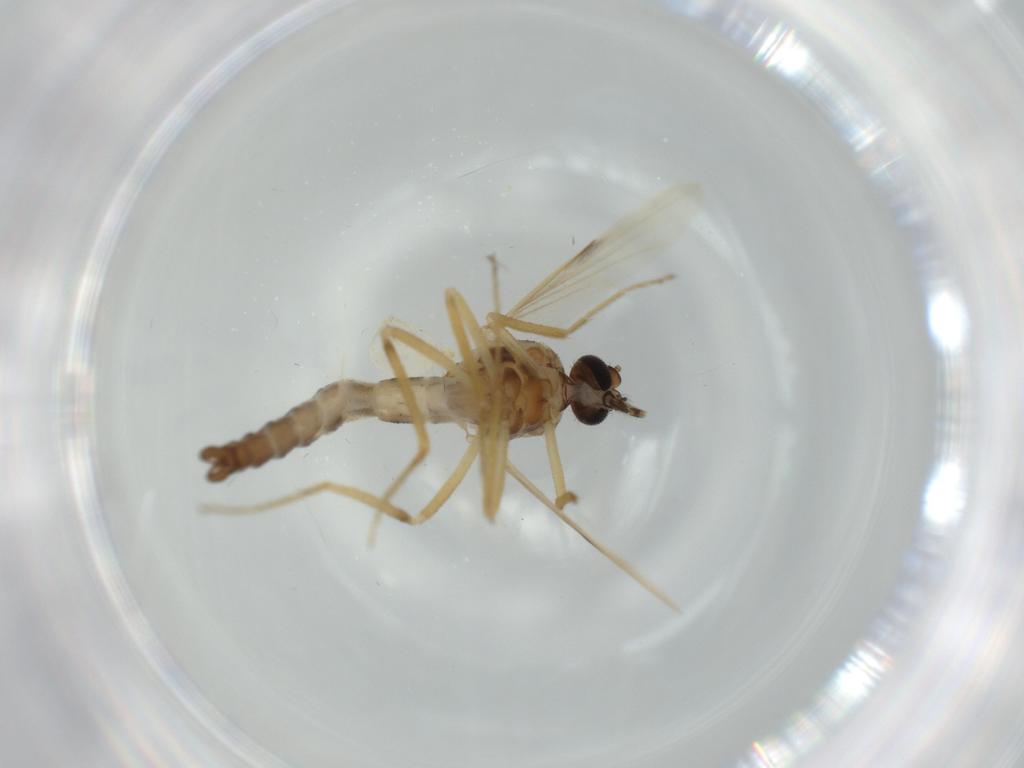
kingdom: Animalia
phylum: Arthropoda
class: Insecta
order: Diptera
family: Ceratopogonidae
